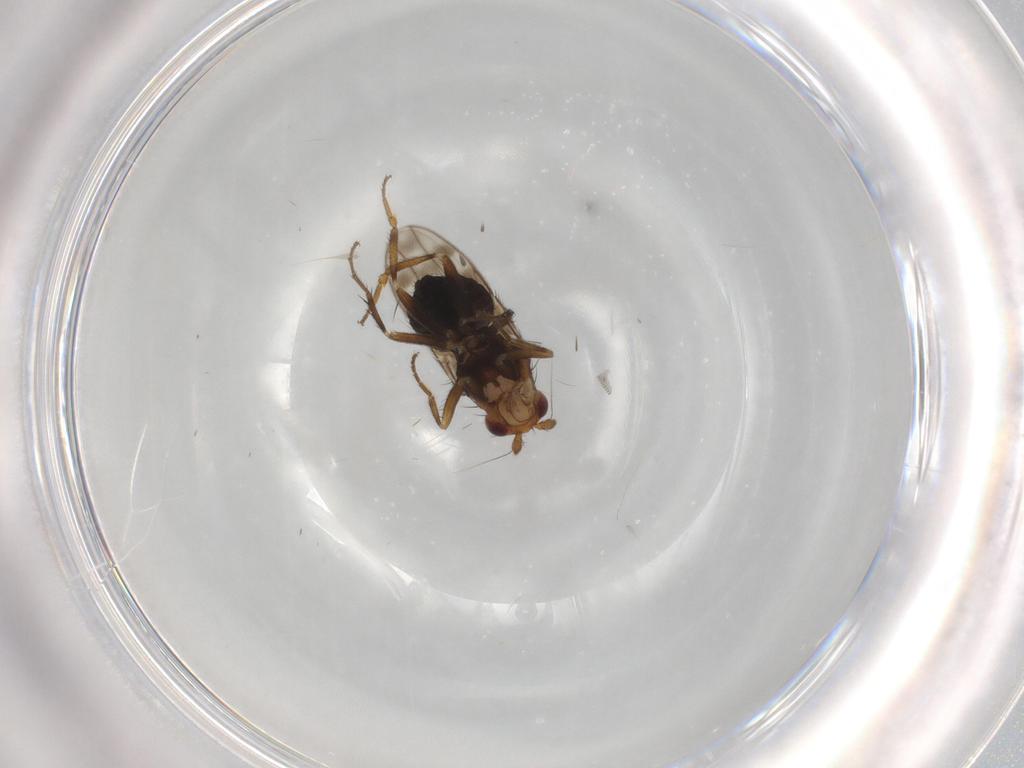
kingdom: Animalia
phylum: Arthropoda
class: Insecta
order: Diptera
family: Sphaeroceridae
